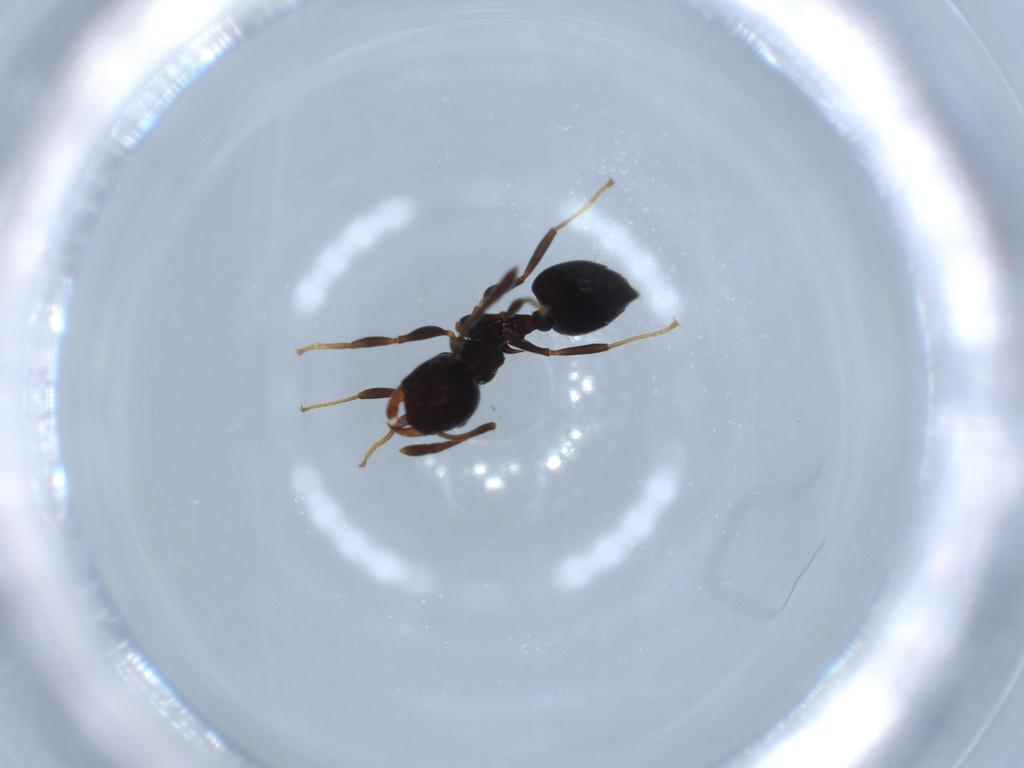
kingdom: Animalia
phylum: Arthropoda
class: Insecta
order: Hymenoptera
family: Formicidae
